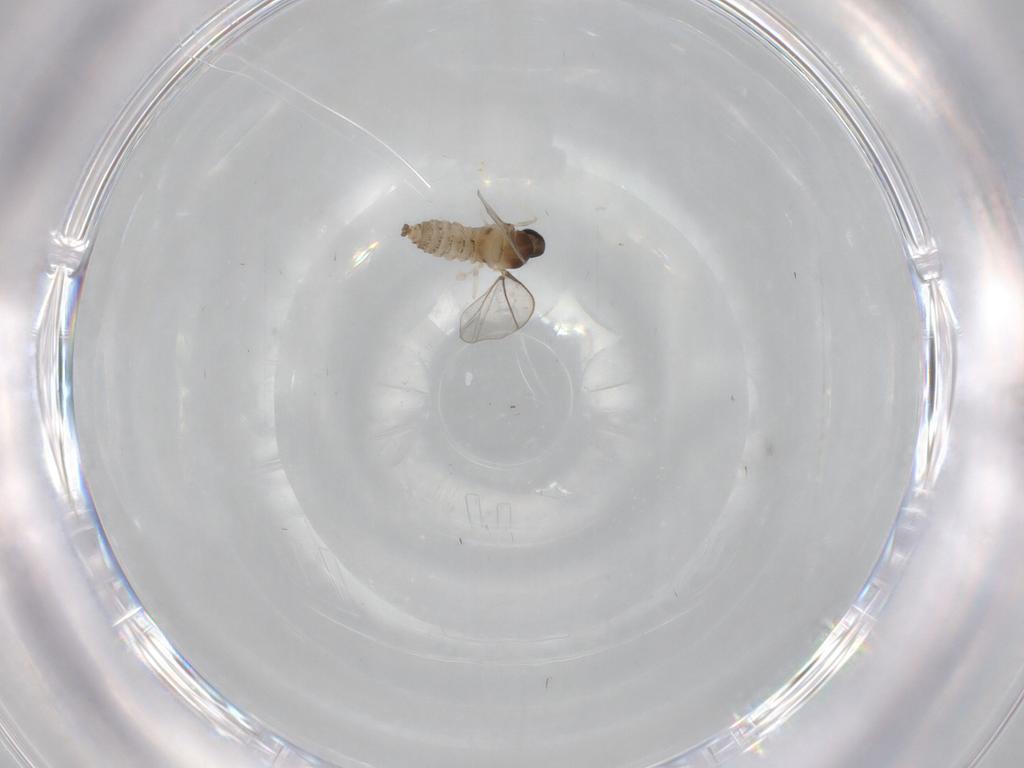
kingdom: Animalia
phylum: Arthropoda
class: Insecta
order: Diptera
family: Cecidomyiidae
